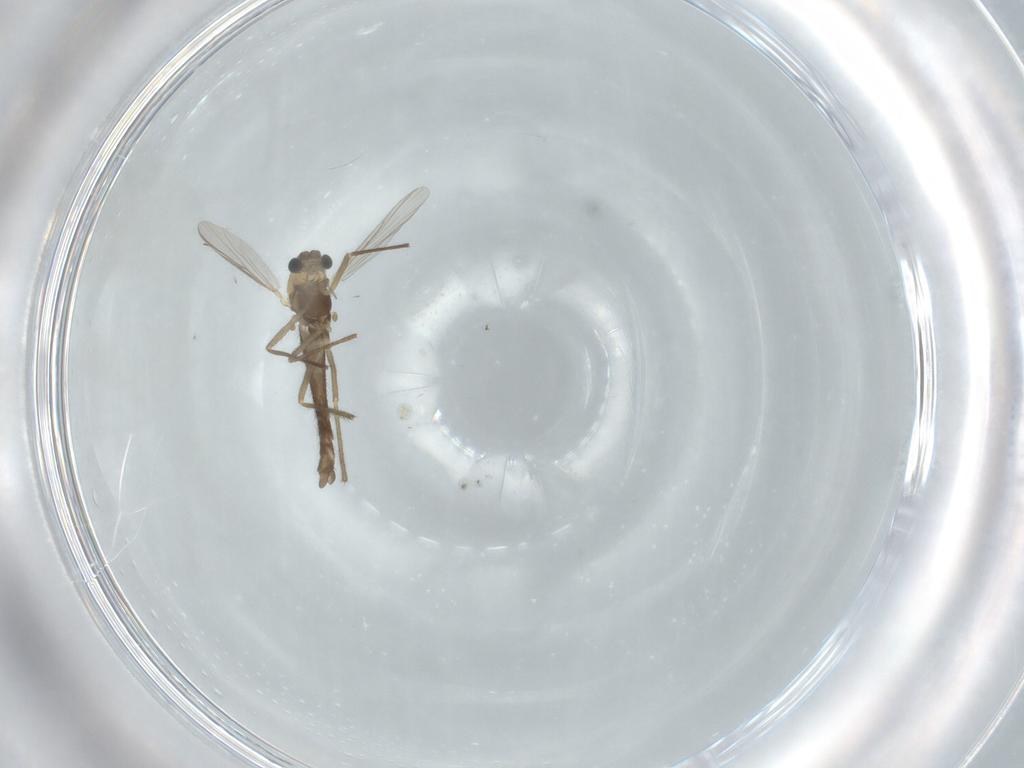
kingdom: Animalia
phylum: Arthropoda
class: Insecta
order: Diptera
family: Chironomidae
